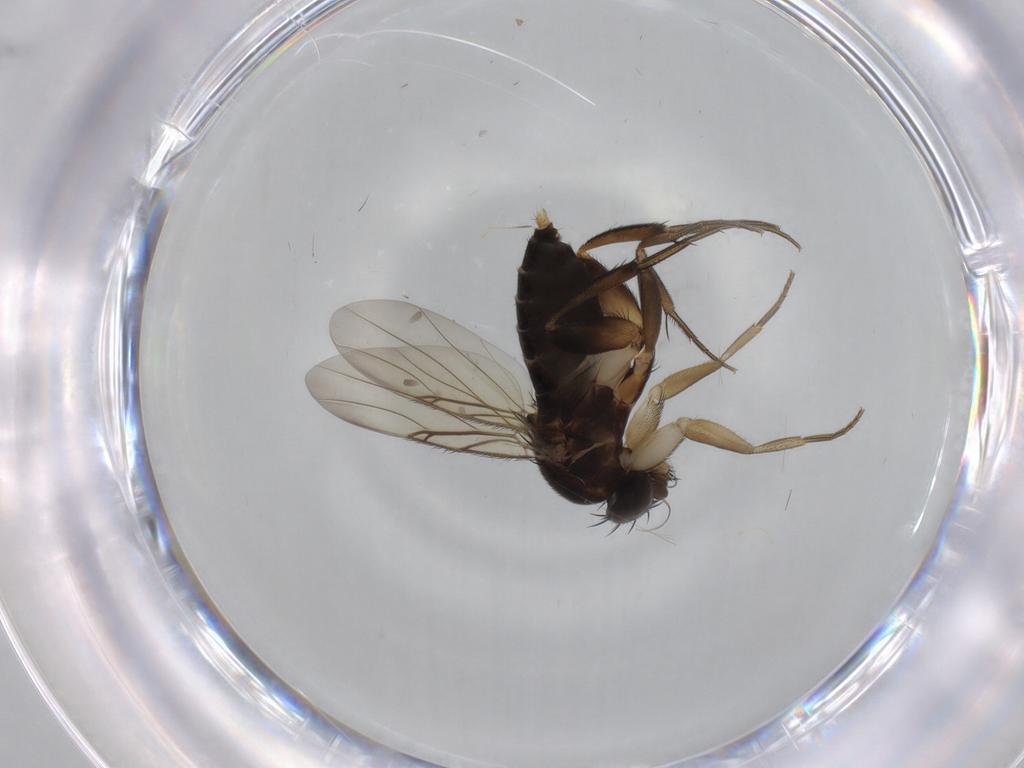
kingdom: Animalia
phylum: Arthropoda
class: Insecta
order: Diptera
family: Phoridae
